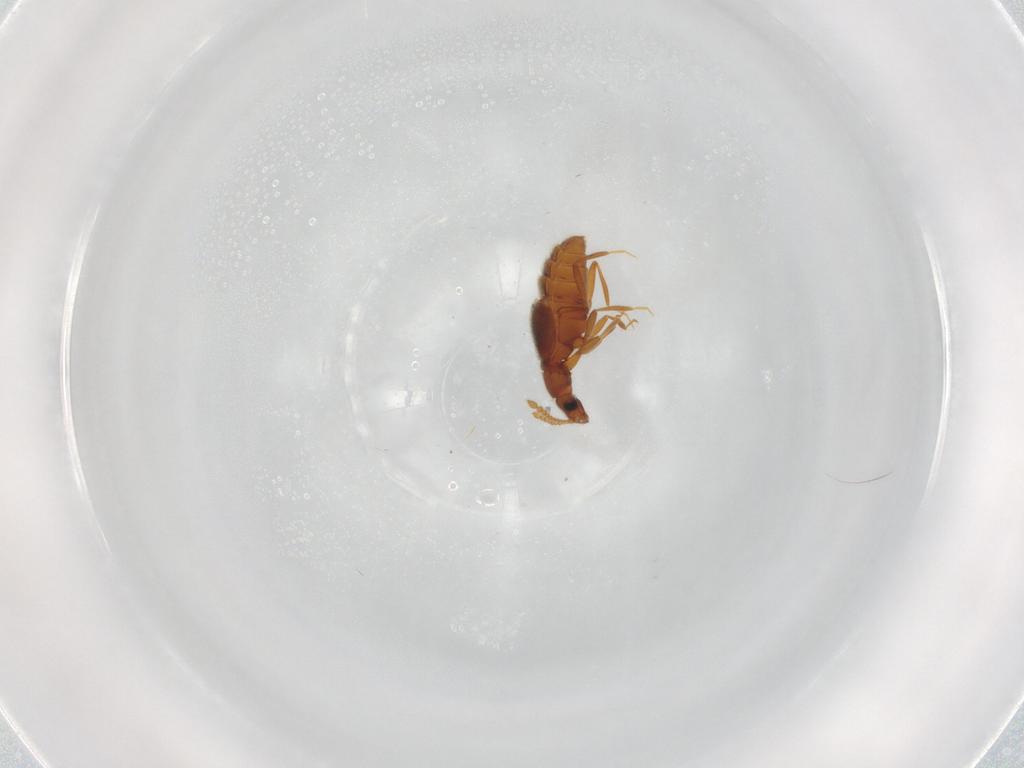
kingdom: Animalia
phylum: Arthropoda
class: Insecta
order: Coleoptera
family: Staphylinidae
